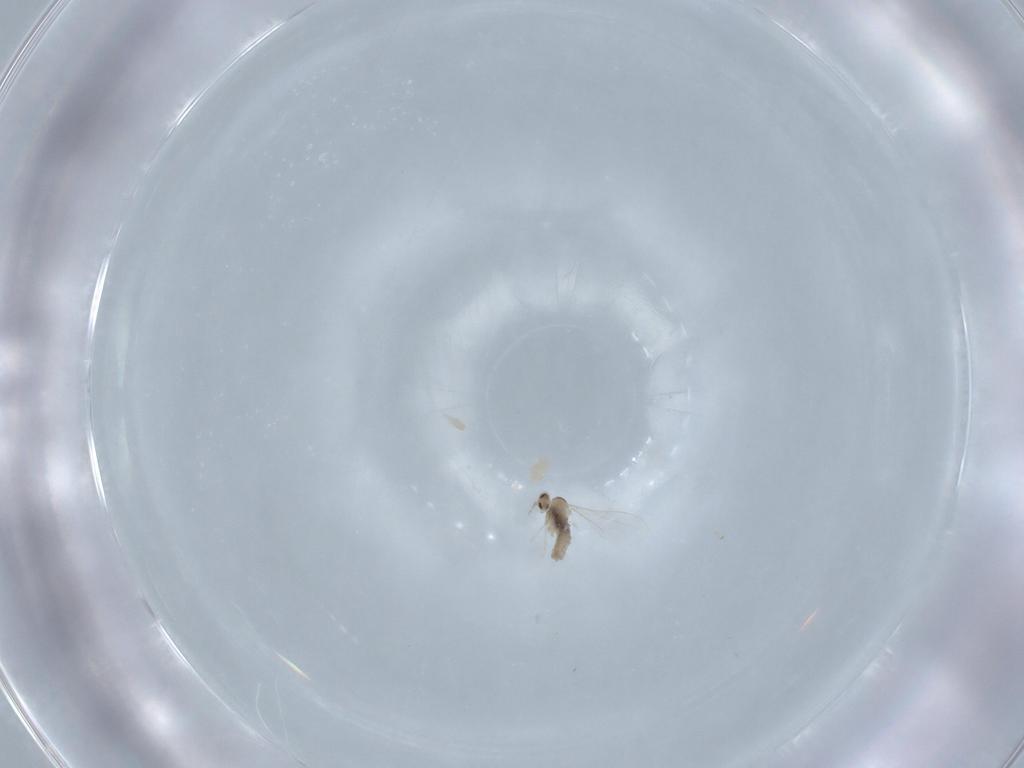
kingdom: Animalia
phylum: Arthropoda
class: Insecta
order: Diptera
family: Cecidomyiidae
